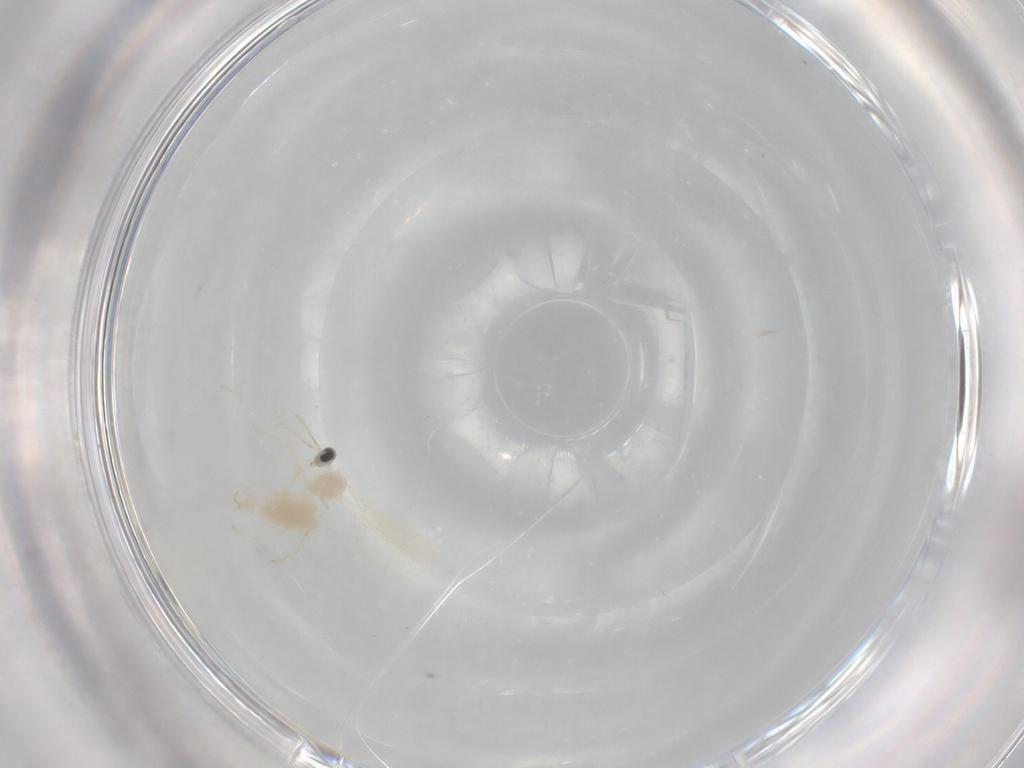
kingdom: Animalia
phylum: Arthropoda
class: Insecta
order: Diptera
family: Cecidomyiidae
